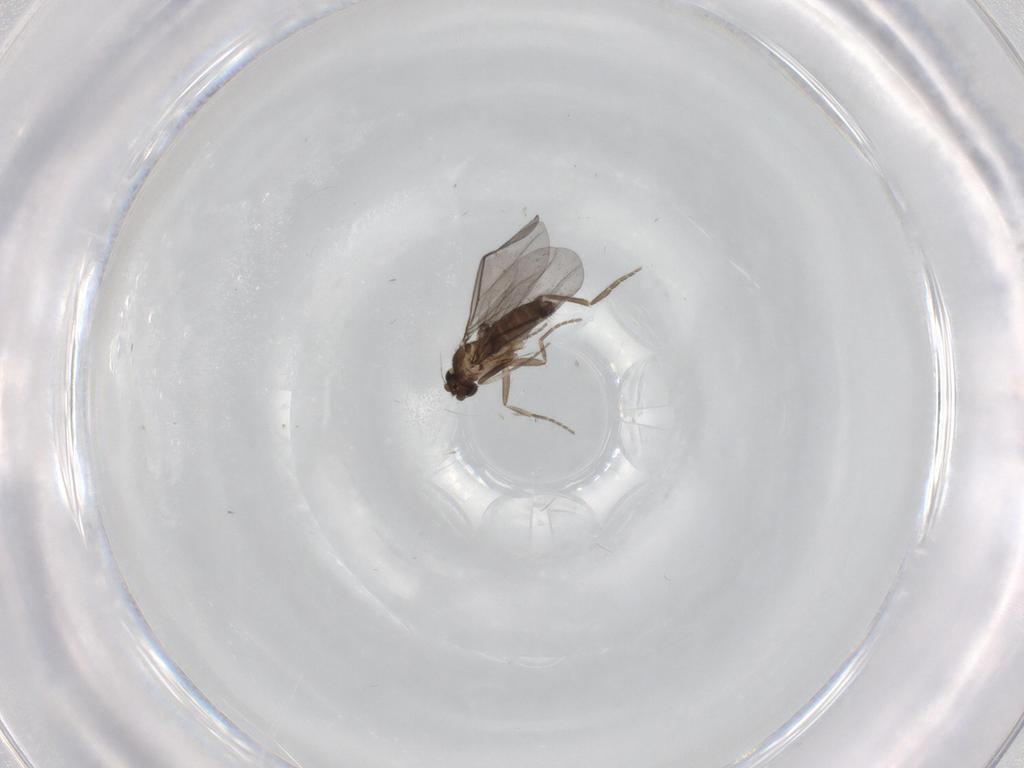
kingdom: Animalia
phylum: Arthropoda
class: Insecta
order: Diptera
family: Phoridae
